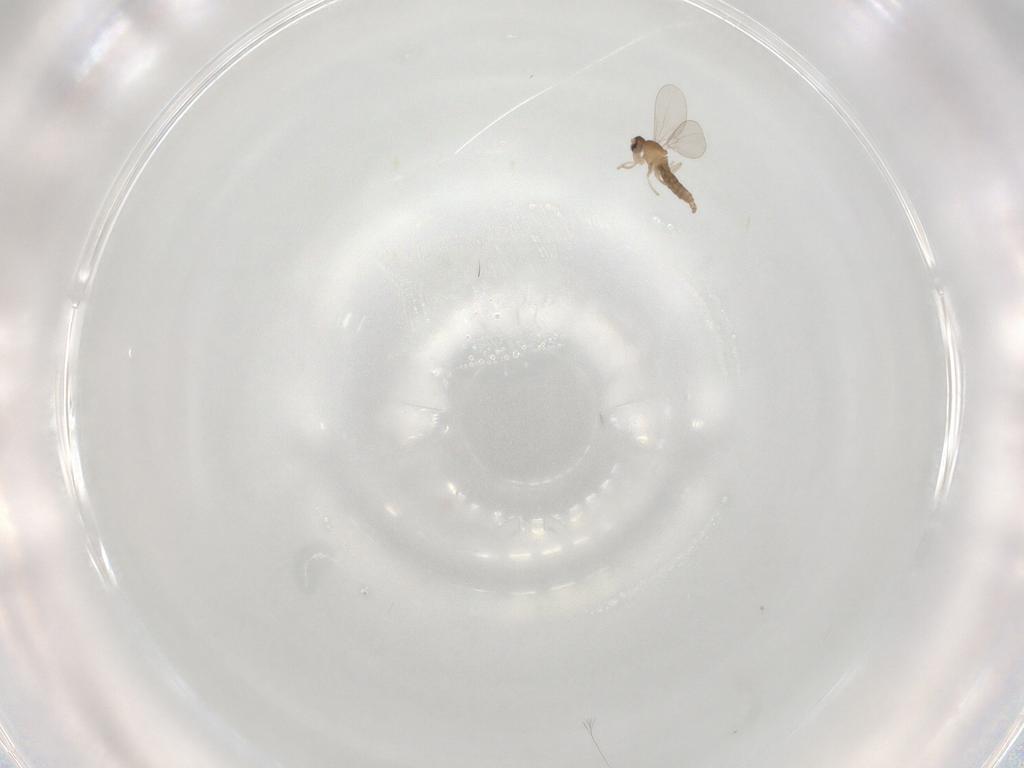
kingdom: Animalia
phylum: Arthropoda
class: Insecta
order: Diptera
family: Cecidomyiidae
